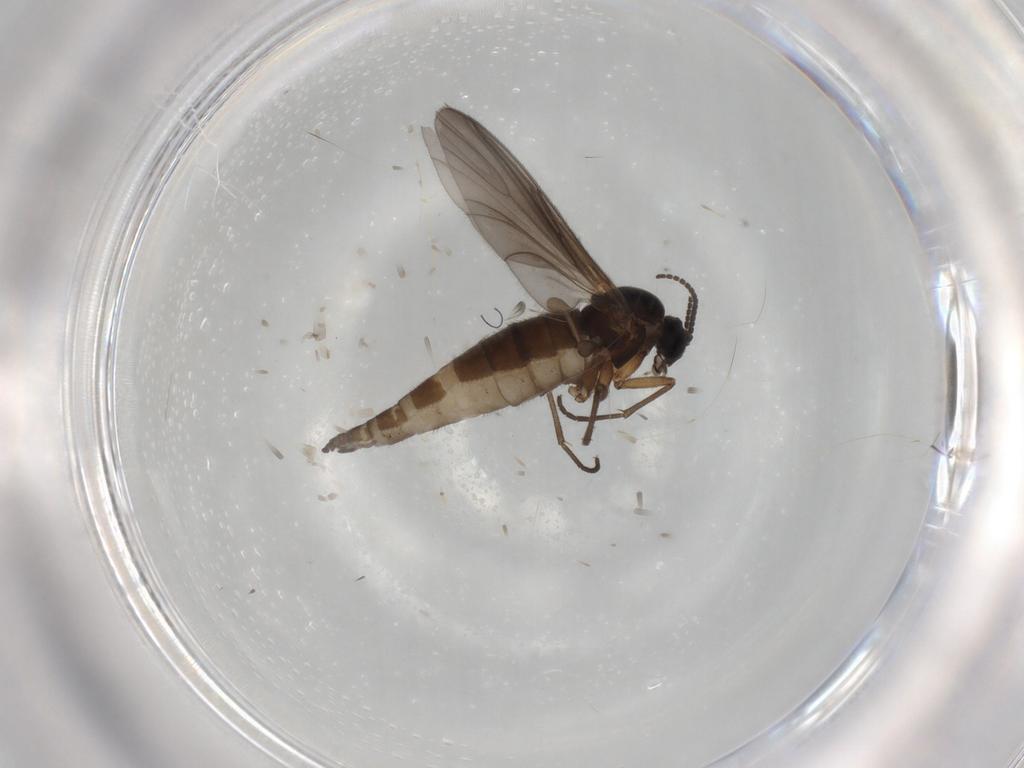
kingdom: Animalia
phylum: Arthropoda
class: Insecta
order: Diptera
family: Sciaridae
